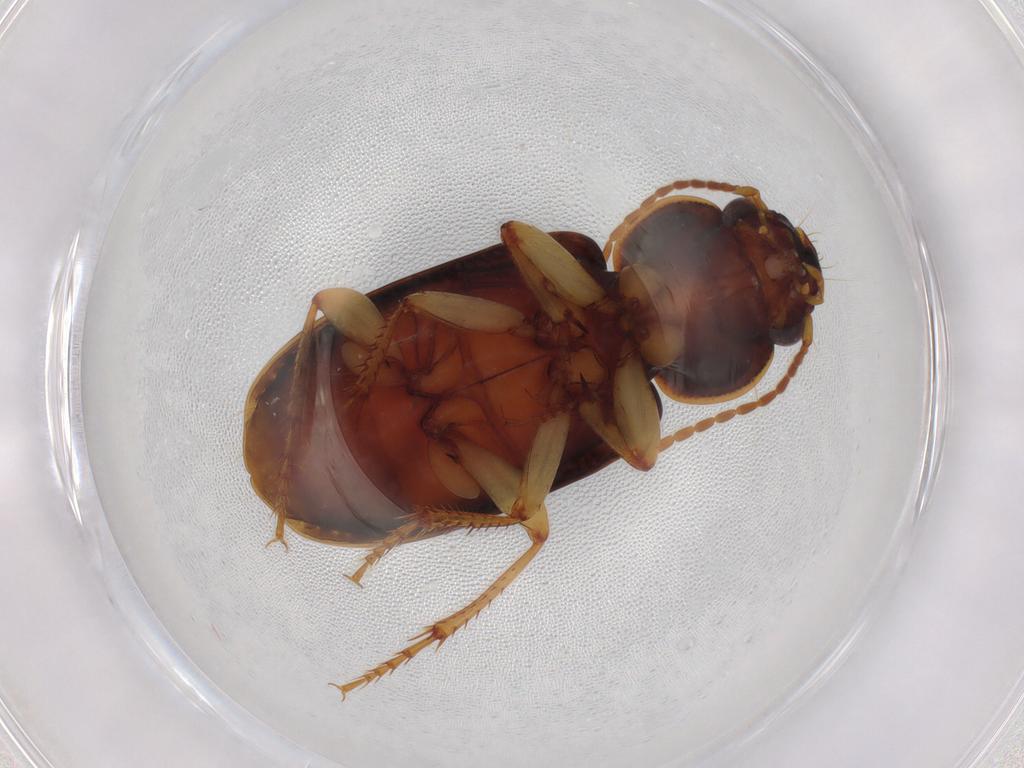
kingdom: Animalia
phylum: Arthropoda
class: Insecta
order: Coleoptera
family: Carabidae
